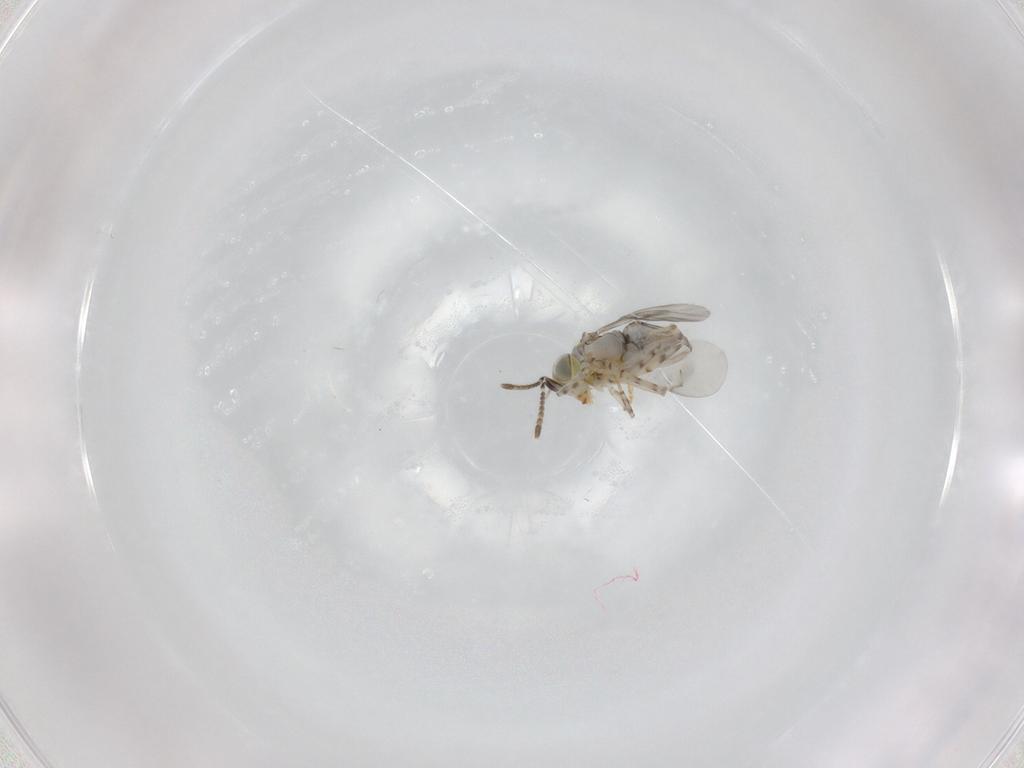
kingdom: Animalia
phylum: Arthropoda
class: Insecta
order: Hymenoptera
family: Encyrtidae
